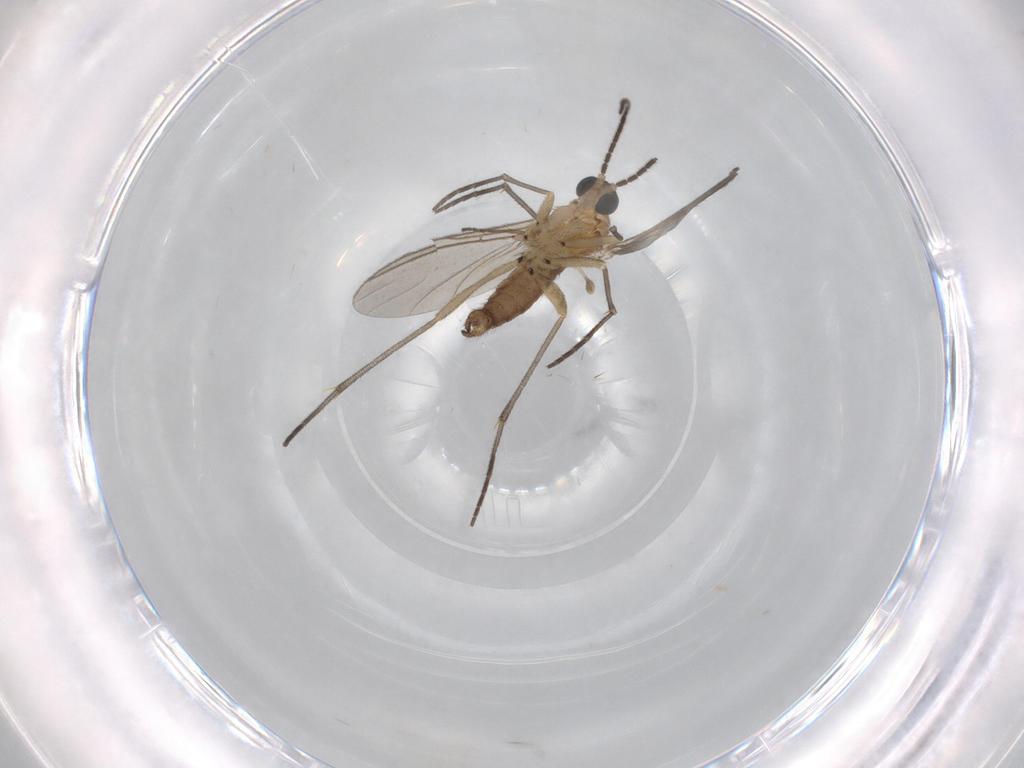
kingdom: Animalia
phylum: Arthropoda
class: Insecta
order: Diptera
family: Sciaridae
